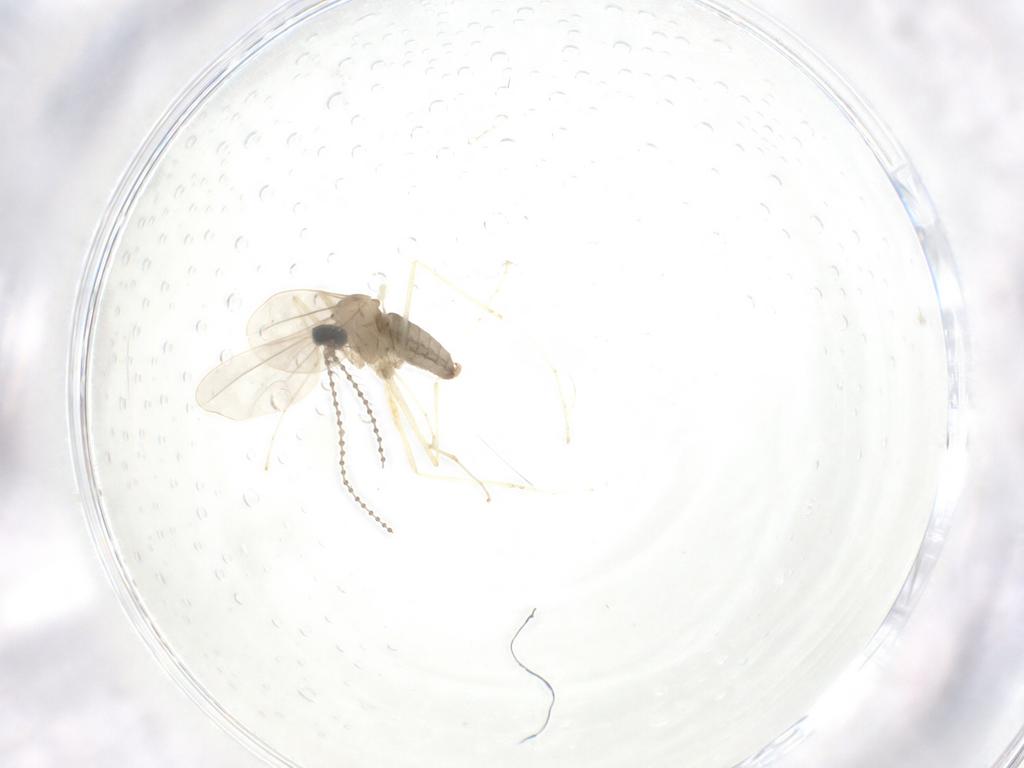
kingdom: Animalia
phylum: Arthropoda
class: Insecta
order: Diptera
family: Cecidomyiidae
